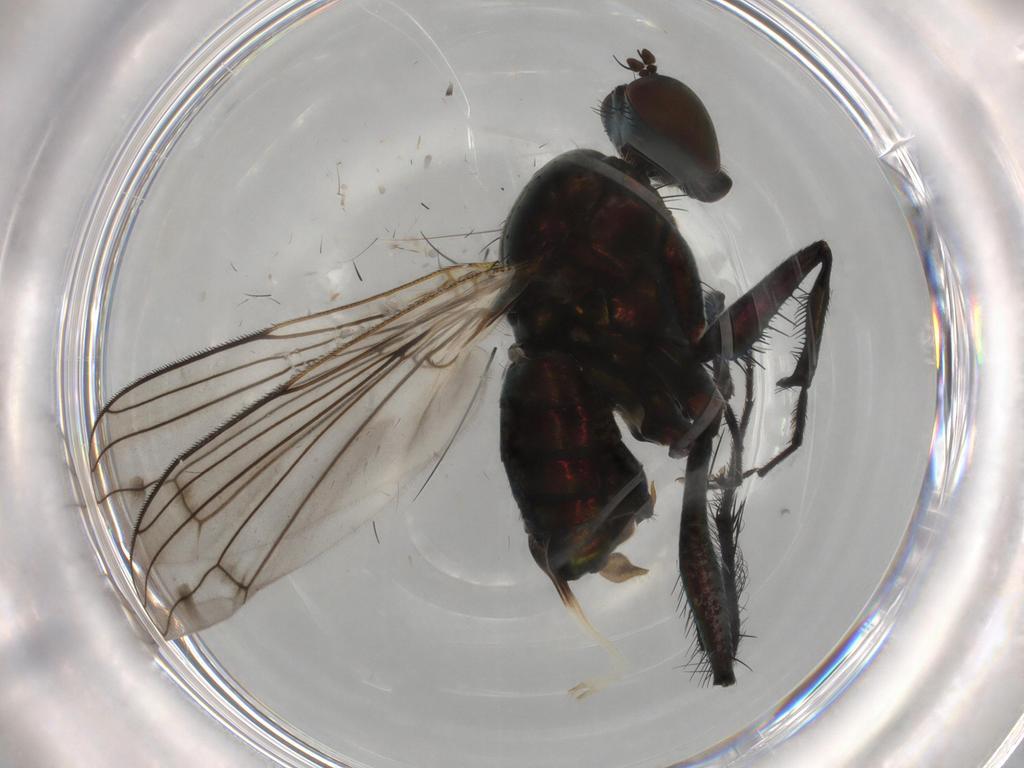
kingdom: Animalia
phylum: Arthropoda
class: Insecta
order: Diptera
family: Dolichopodidae
